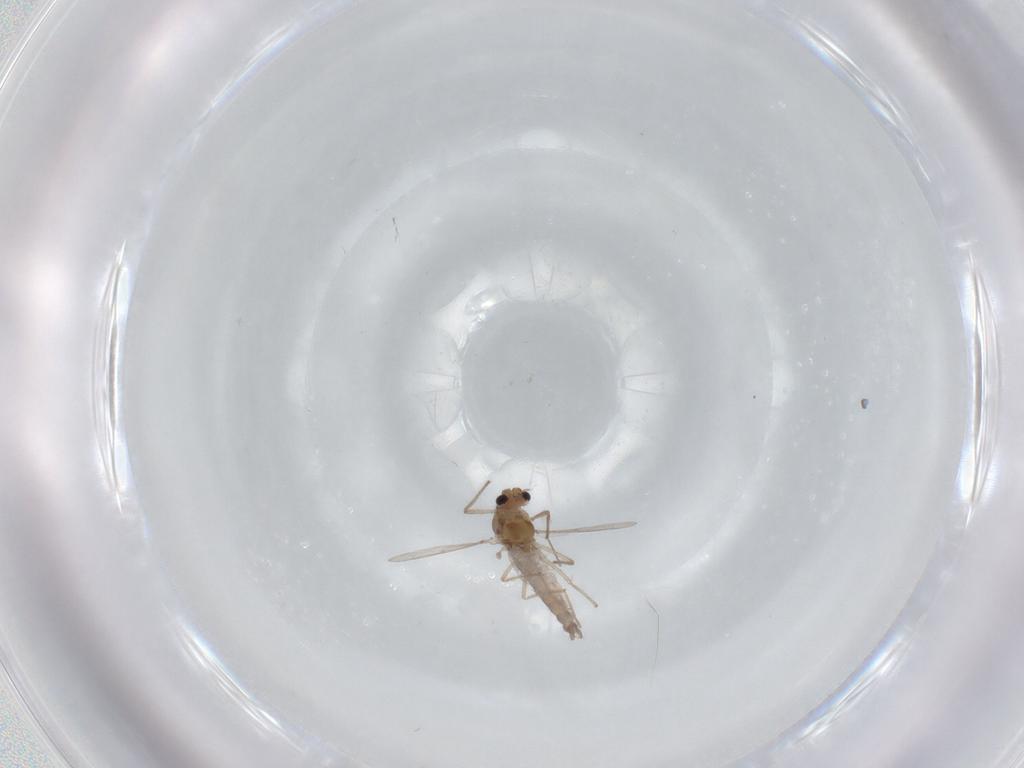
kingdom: Animalia
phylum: Arthropoda
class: Insecta
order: Diptera
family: Chironomidae
